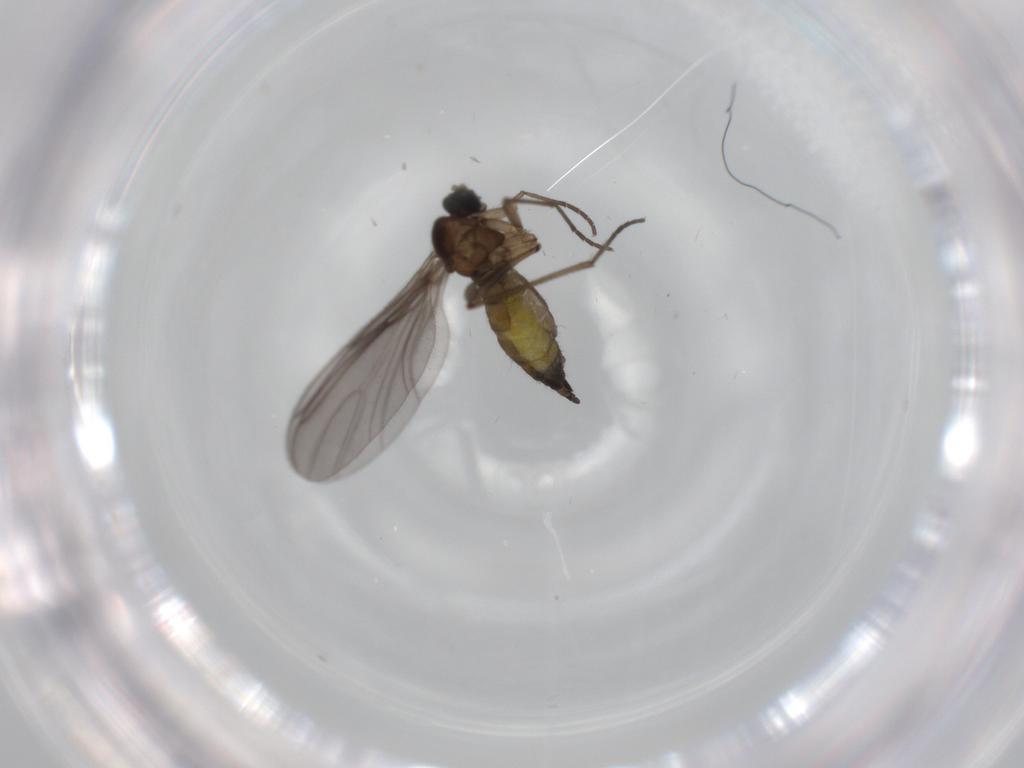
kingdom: Animalia
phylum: Arthropoda
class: Insecta
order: Diptera
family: Sciaridae
